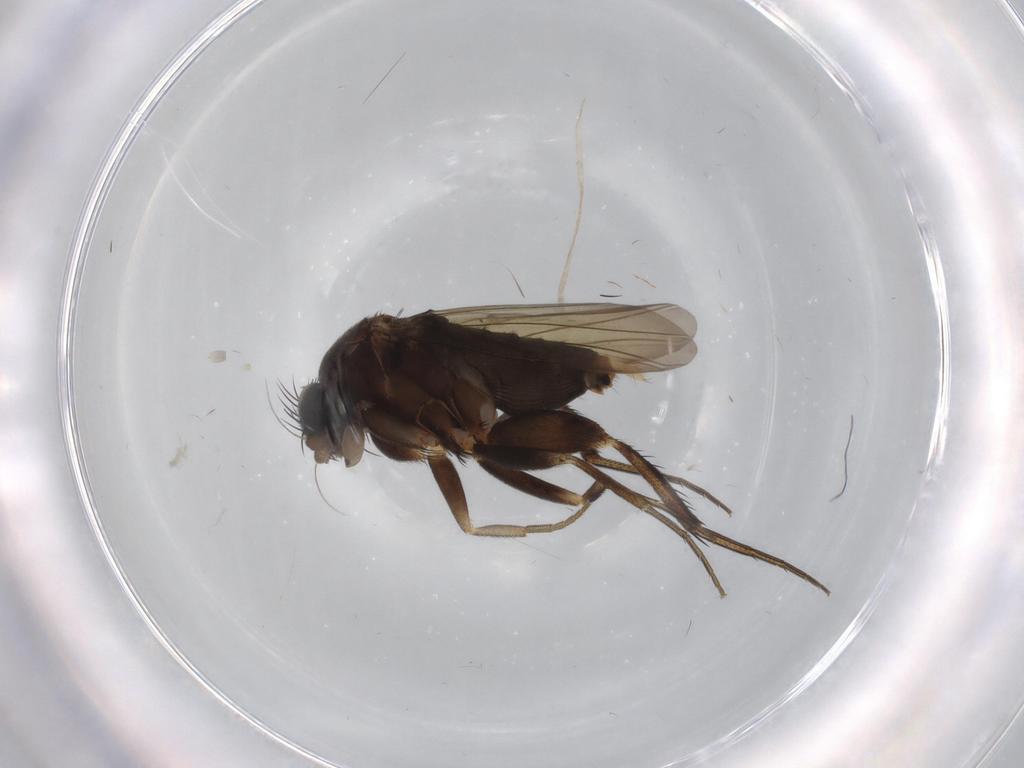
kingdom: Animalia
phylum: Arthropoda
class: Insecta
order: Diptera
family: Phoridae
